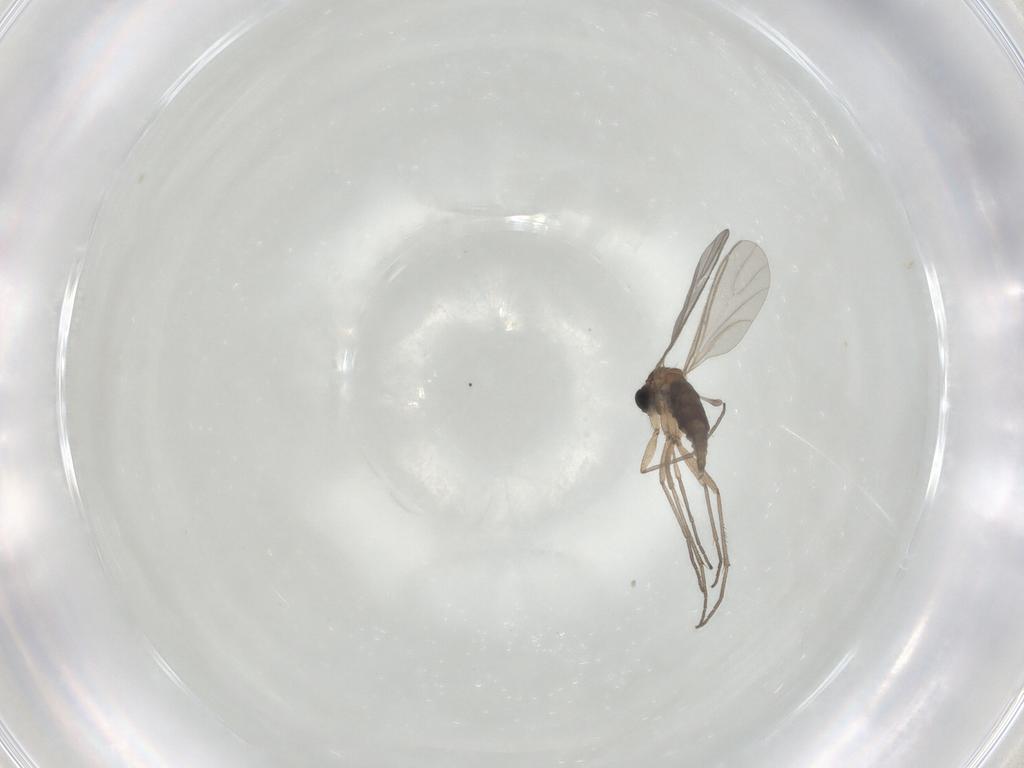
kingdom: Animalia
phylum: Arthropoda
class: Insecta
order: Diptera
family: Sciaridae
